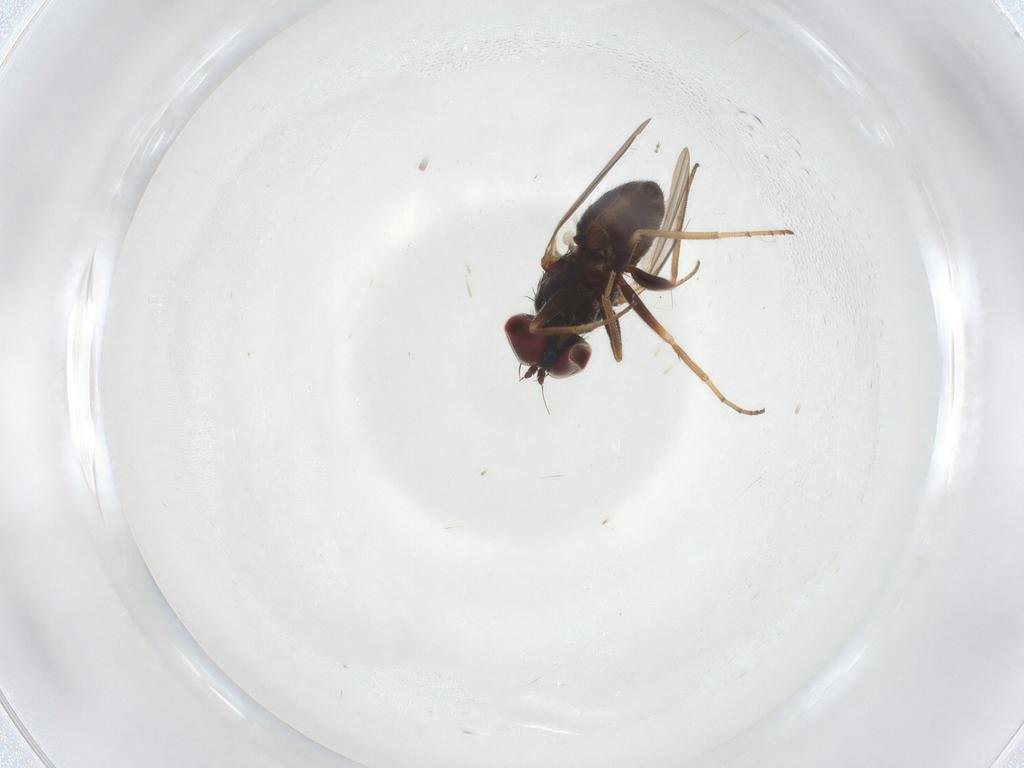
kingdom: Animalia
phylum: Arthropoda
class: Insecta
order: Diptera
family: Dolichopodidae
